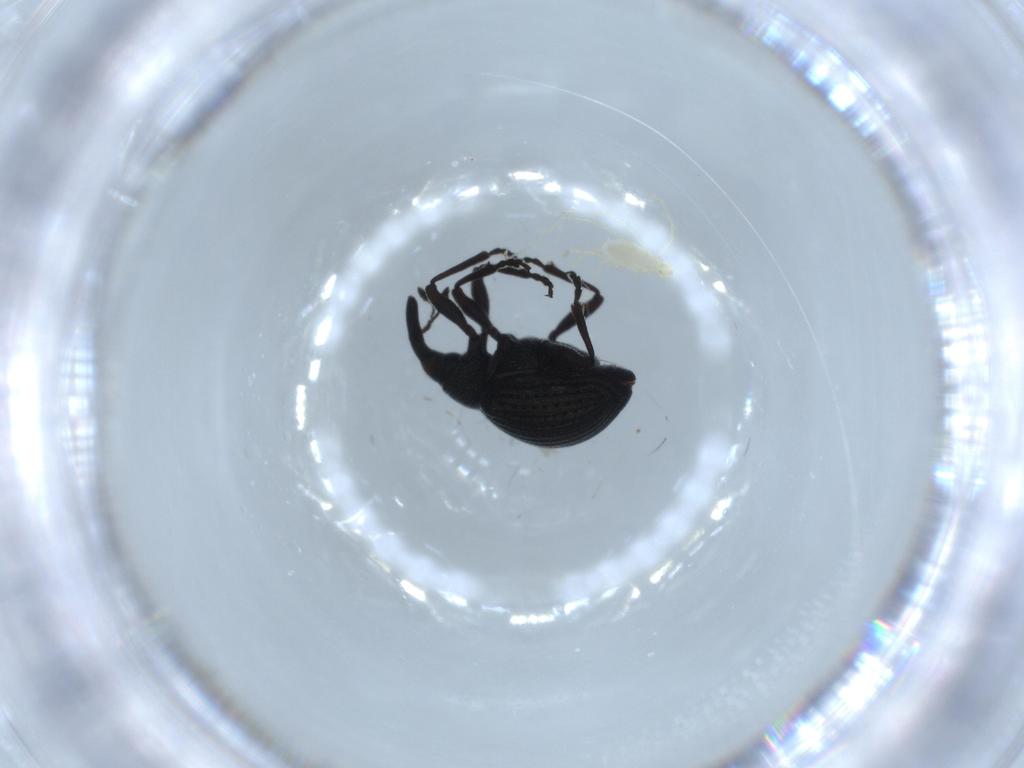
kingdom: Animalia
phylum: Arthropoda
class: Insecta
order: Coleoptera
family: Brentidae
